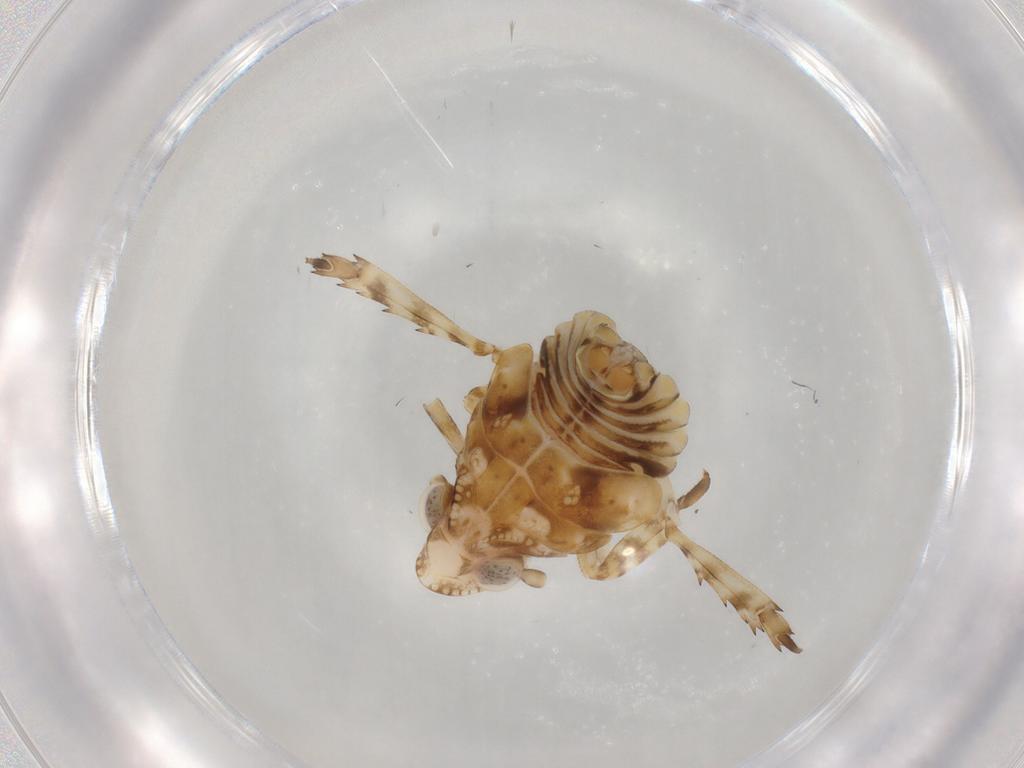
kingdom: Animalia
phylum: Arthropoda
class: Insecta
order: Hemiptera
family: Eurybrachidae
